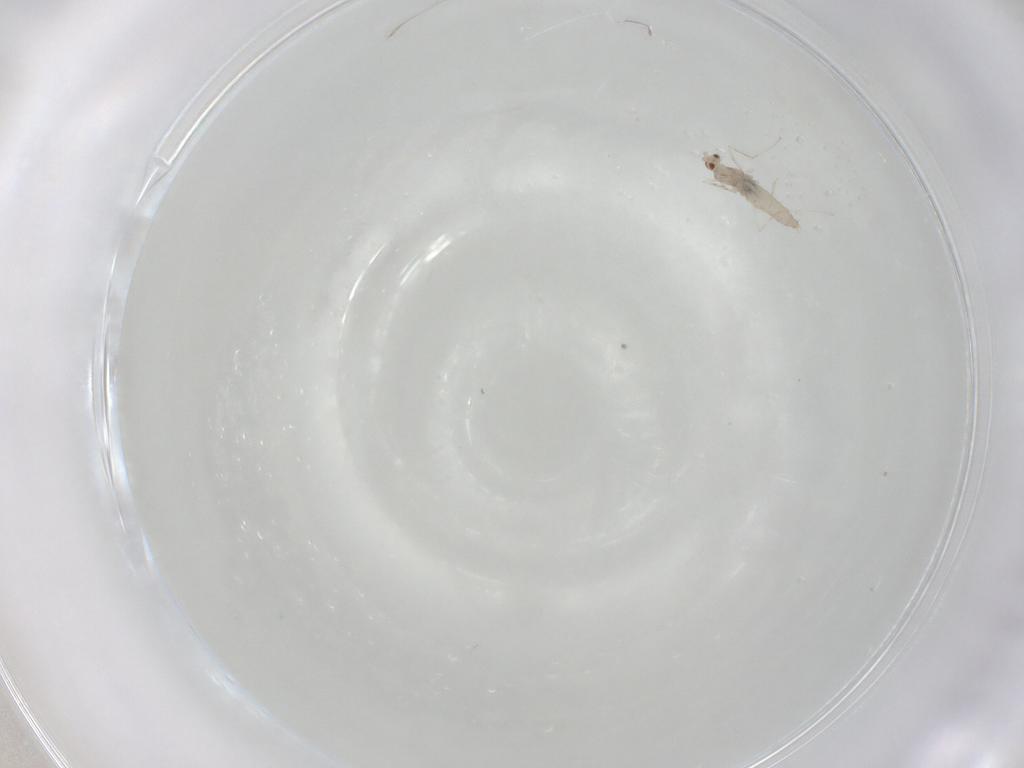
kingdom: Animalia
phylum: Arthropoda
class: Insecta
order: Diptera
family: Cecidomyiidae
